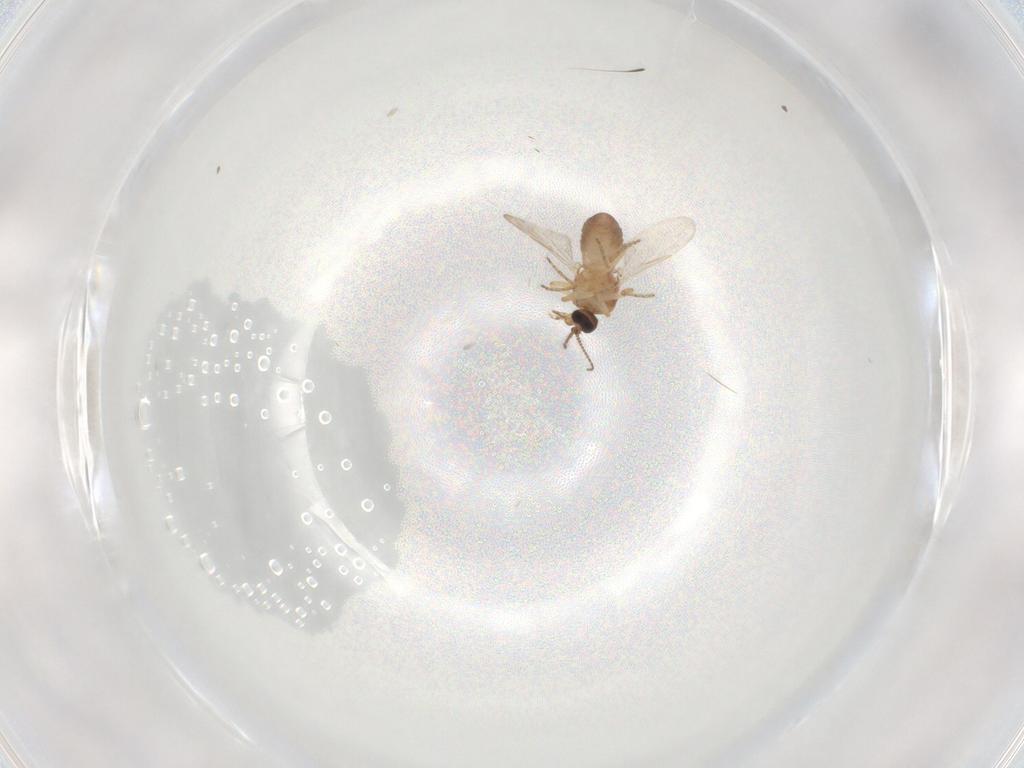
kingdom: Animalia
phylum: Arthropoda
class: Insecta
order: Diptera
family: Ceratopogonidae
